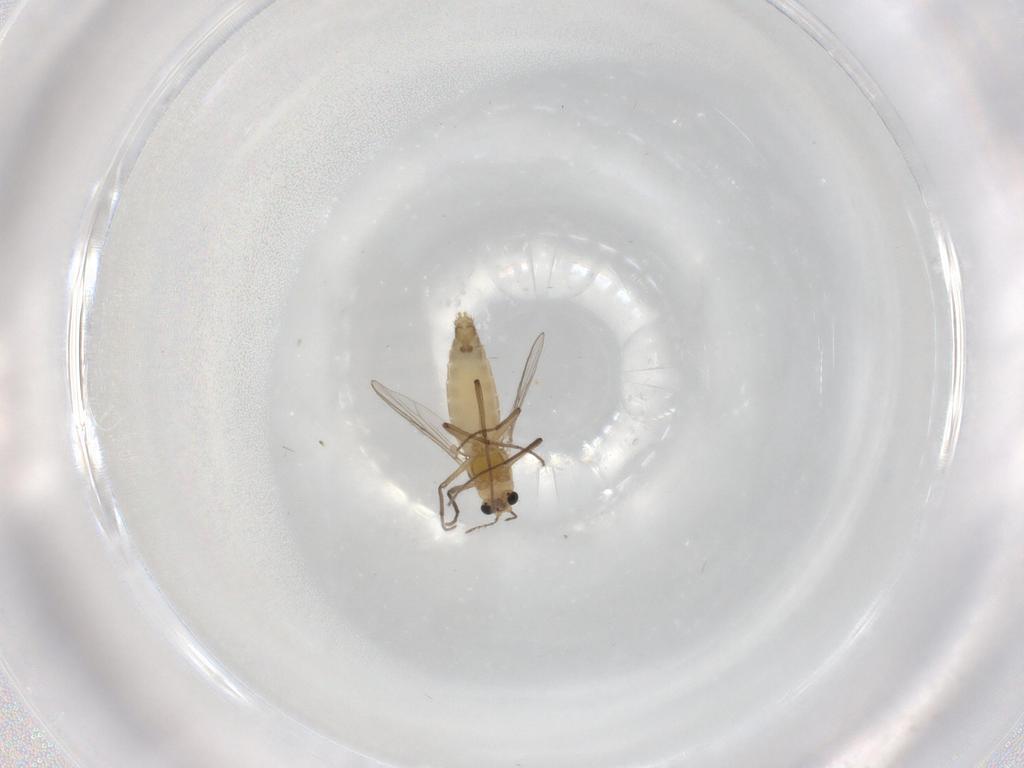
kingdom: Animalia
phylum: Arthropoda
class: Insecta
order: Diptera
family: Chironomidae
